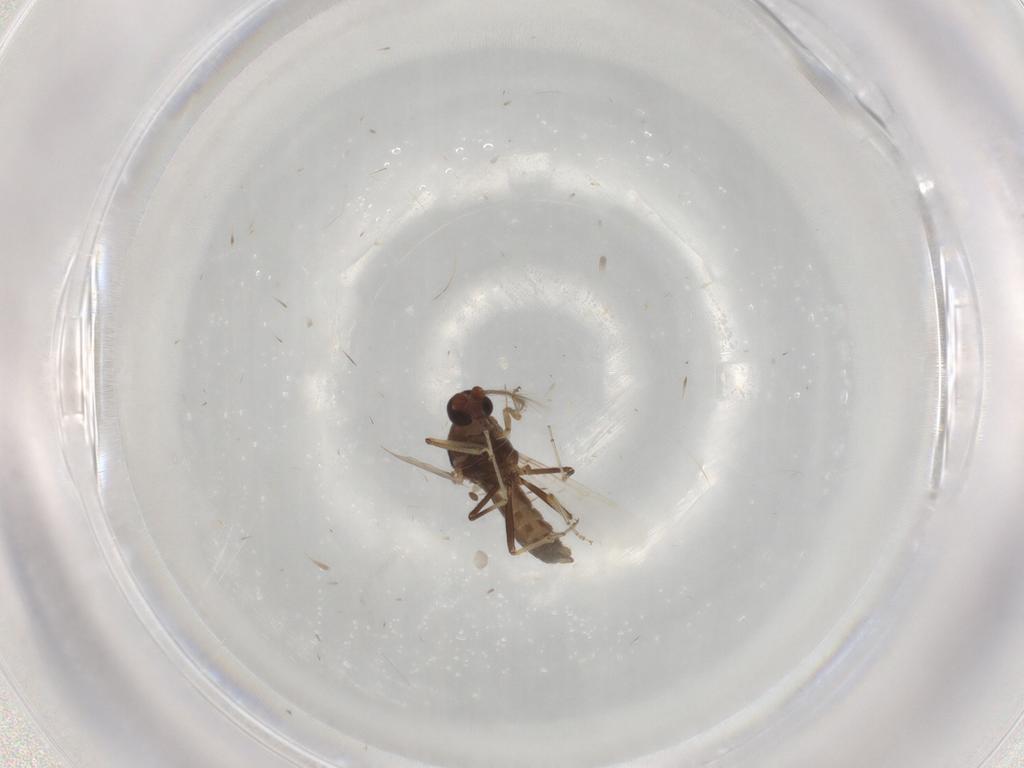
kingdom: Animalia
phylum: Arthropoda
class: Insecta
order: Diptera
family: Ceratopogonidae
